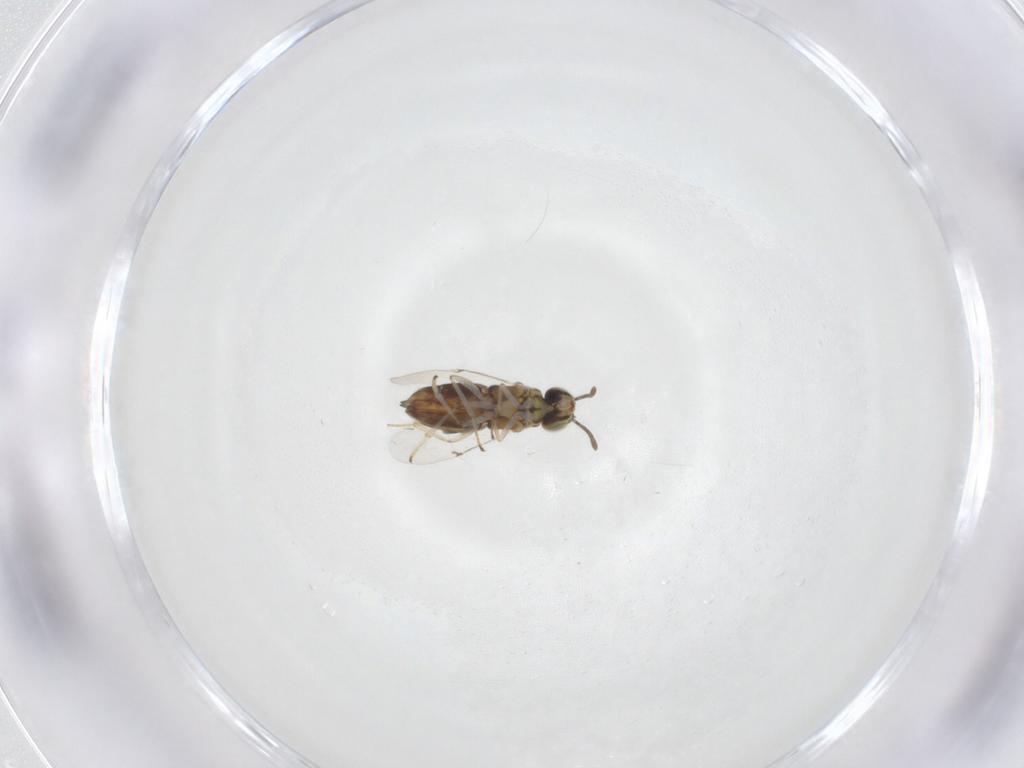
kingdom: Animalia
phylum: Arthropoda
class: Insecta
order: Hymenoptera
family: Encyrtidae
